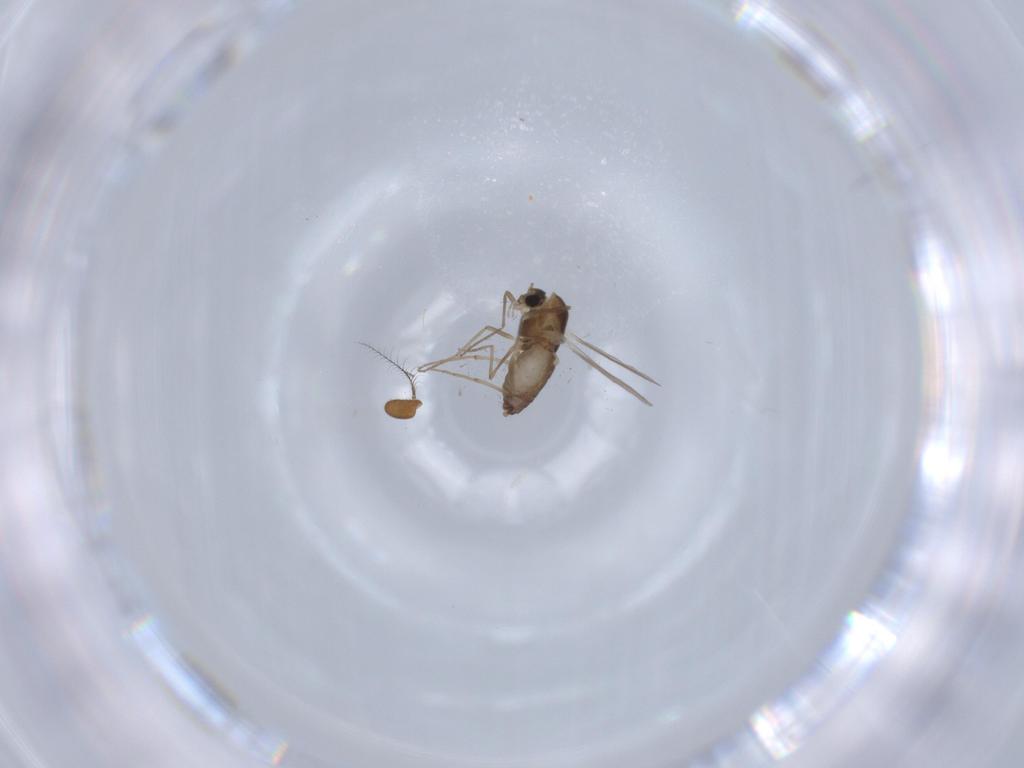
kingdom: Animalia
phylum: Arthropoda
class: Insecta
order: Diptera
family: Chironomidae
